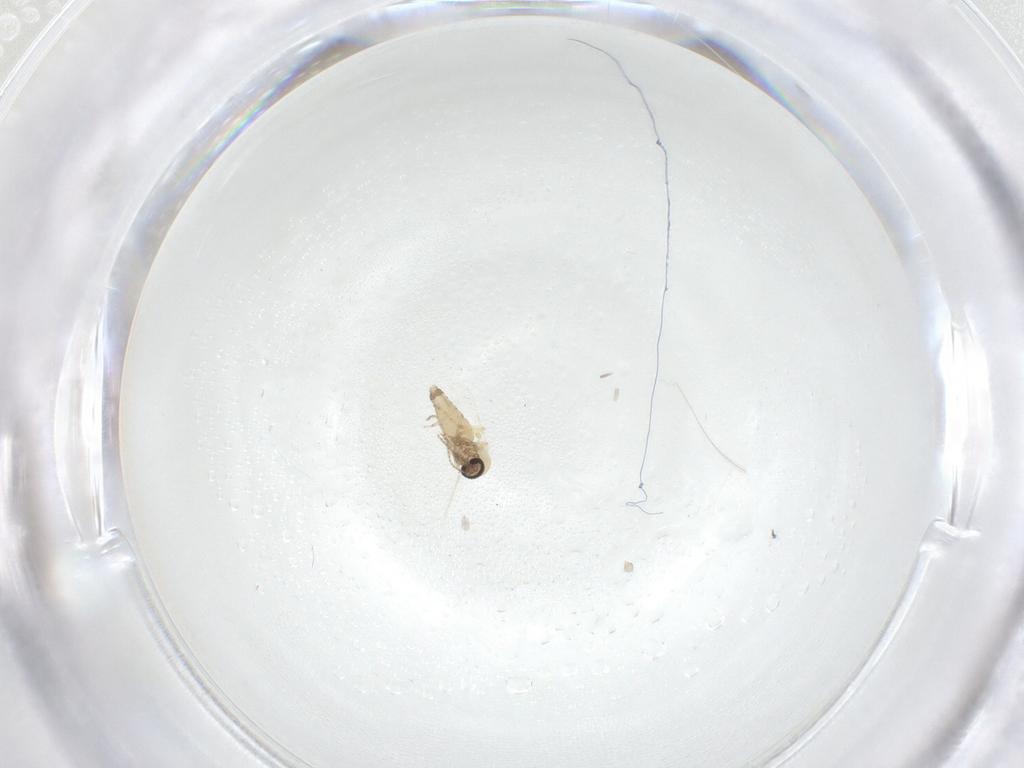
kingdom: Animalia
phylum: Arthropoda
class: Insecta
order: Diptera
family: Ceratopogonidae
